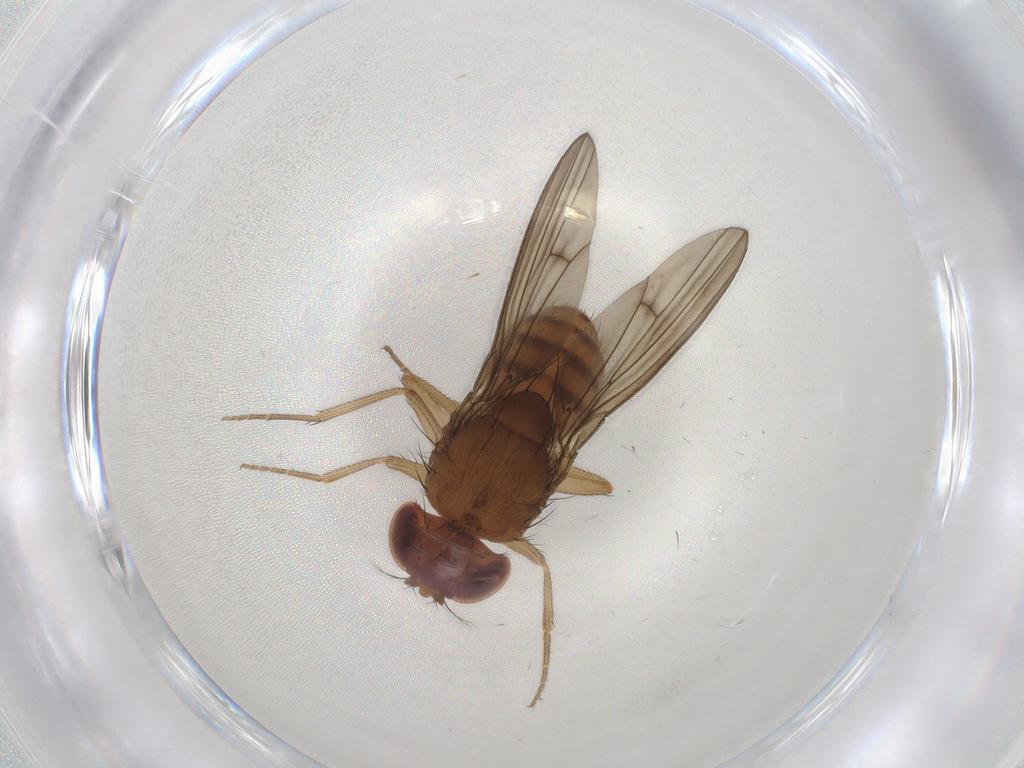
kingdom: Animalia
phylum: Arthropoda
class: Insecta
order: Diptera
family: Drosophilidae
